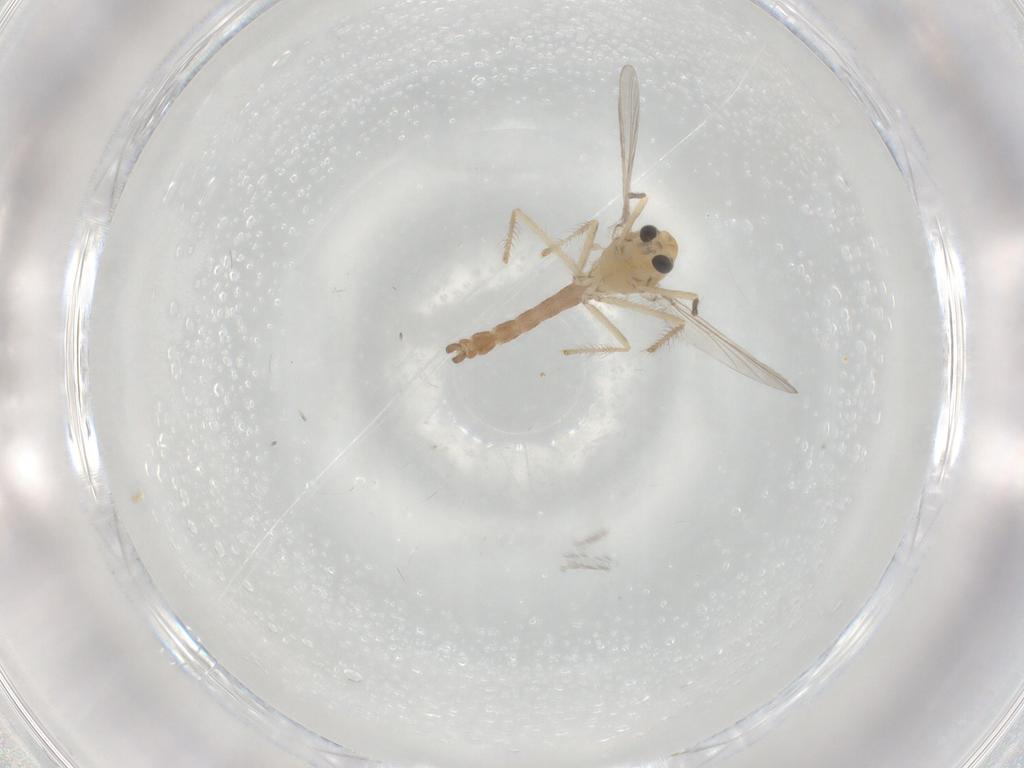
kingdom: Animalia
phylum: Arthropoda
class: Insecta
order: Diptera
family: Chironomidae
